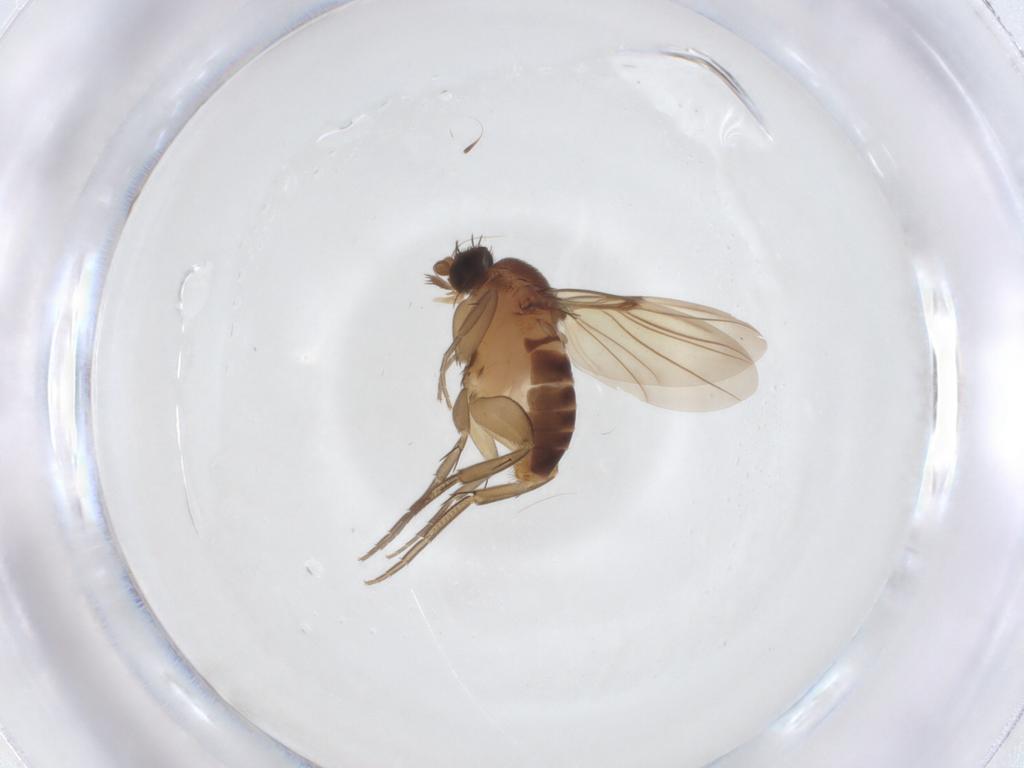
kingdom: Animalia
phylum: Arthropoda
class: Insecta
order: Diptera
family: Phoridae
